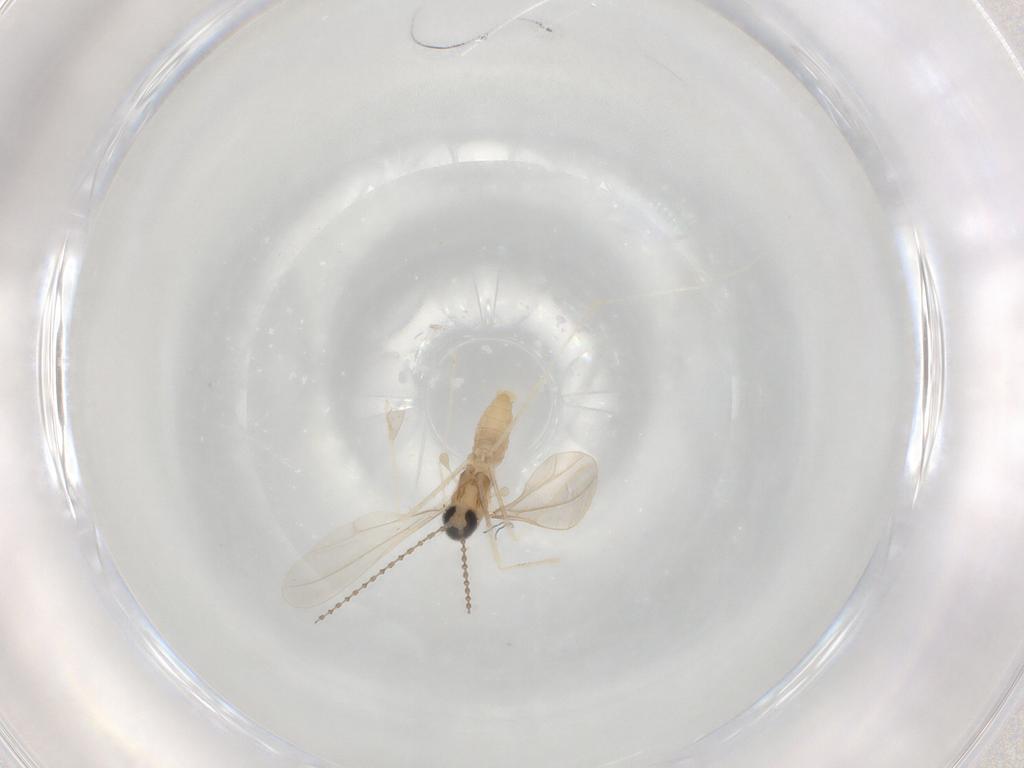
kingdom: Animalia
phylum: Arthropoda
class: Insecta
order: Diptera
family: Cecidomyiidae
